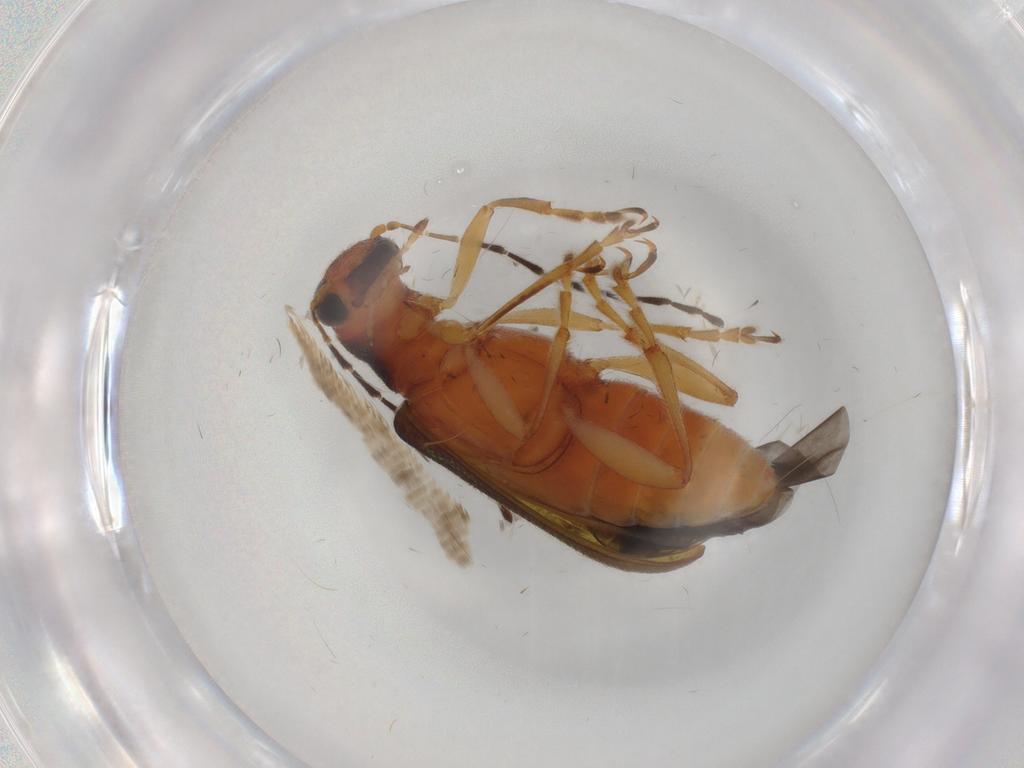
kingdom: Animalia
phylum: Arthropoda
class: Insecta
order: Coleoptera
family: Chrysomelidae
